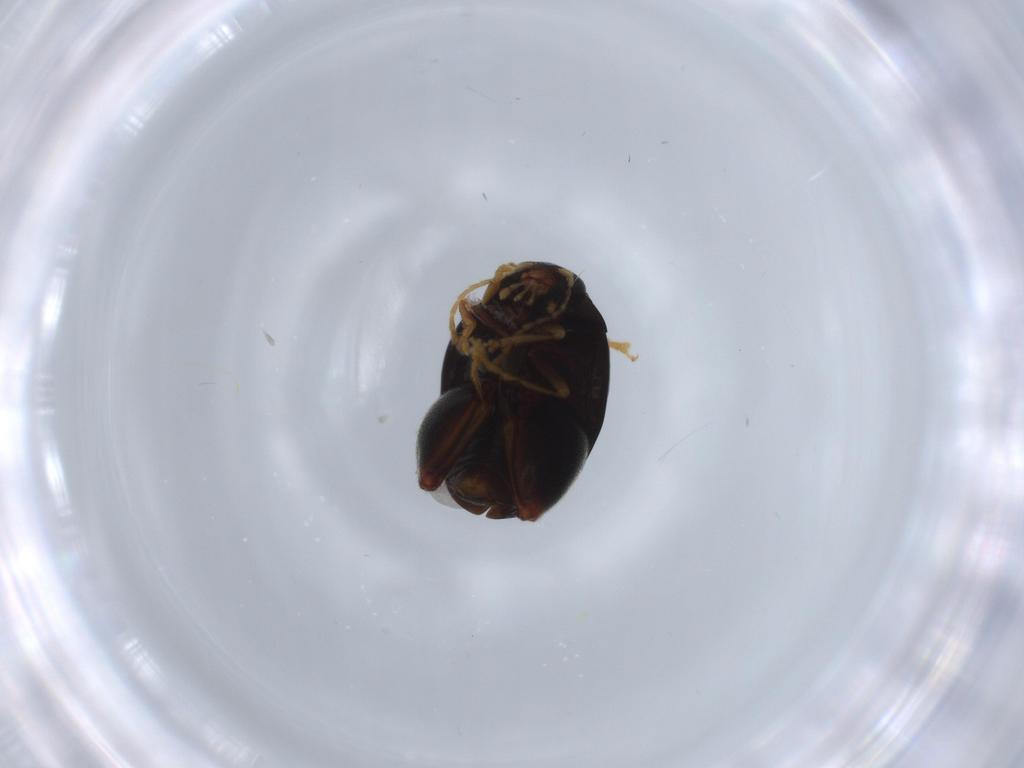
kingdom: Animalia
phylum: Arthropoda
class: Insecta
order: Coleoptera
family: Chrysomelidae
